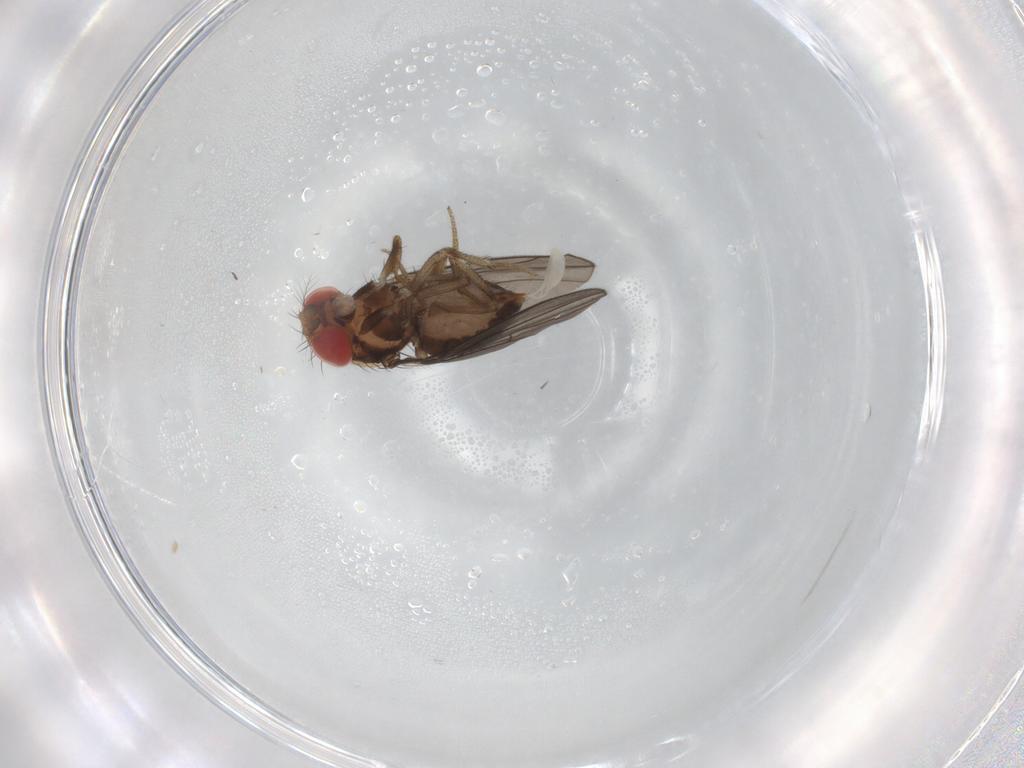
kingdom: Animalia
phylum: Arthropoda
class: Insecta
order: Diptera
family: Drosophilidae
